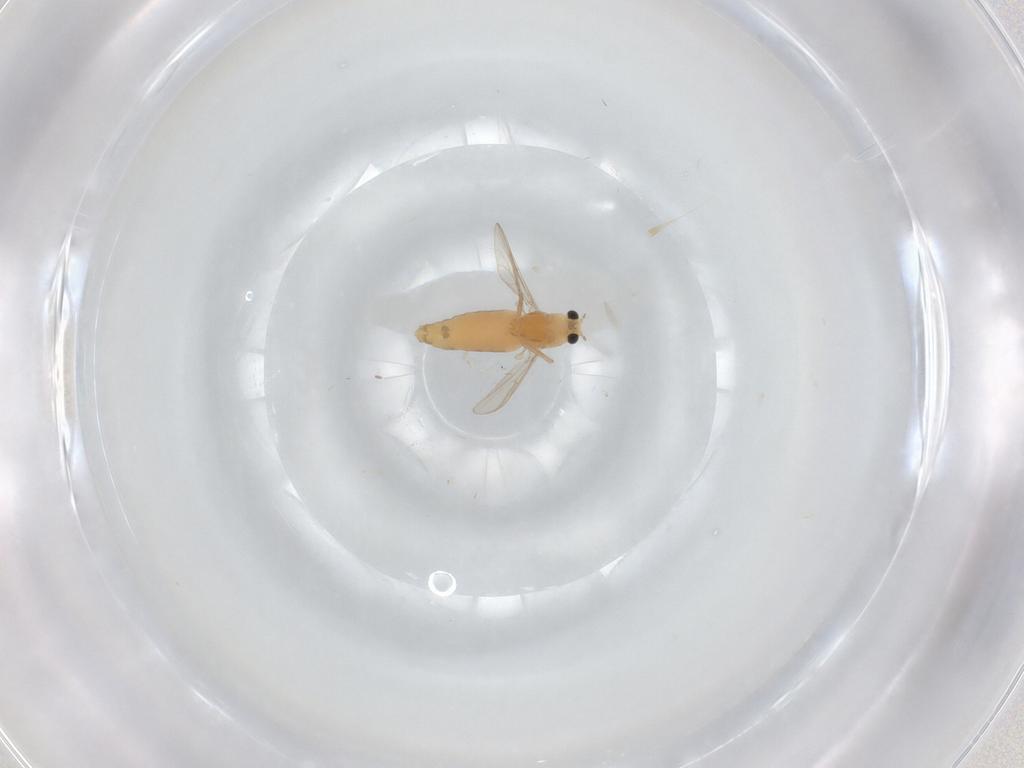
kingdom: Animalia
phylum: Arthropoda
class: Insecta
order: Diptera
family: Chironomidae
